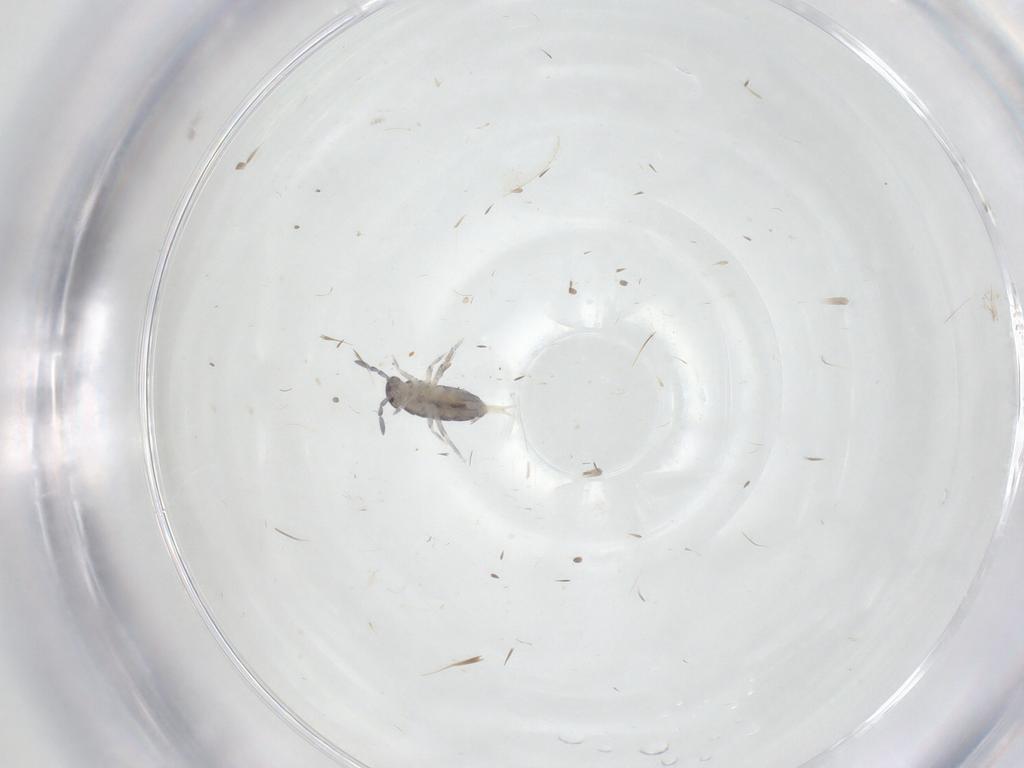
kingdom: Animalia
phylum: Arthropoda
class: Collembola
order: Entomobryomorpha
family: Entomobryidae
